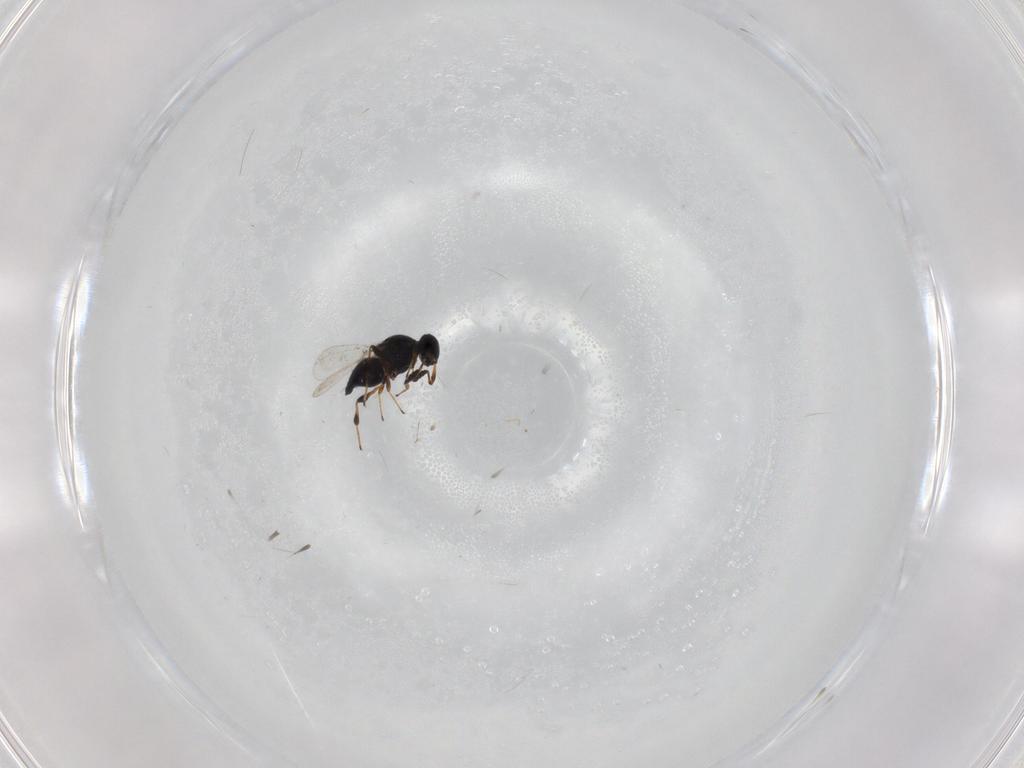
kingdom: Animalia
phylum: Arthropoda
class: Insecta
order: Hymenoptera
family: Platygastridae
